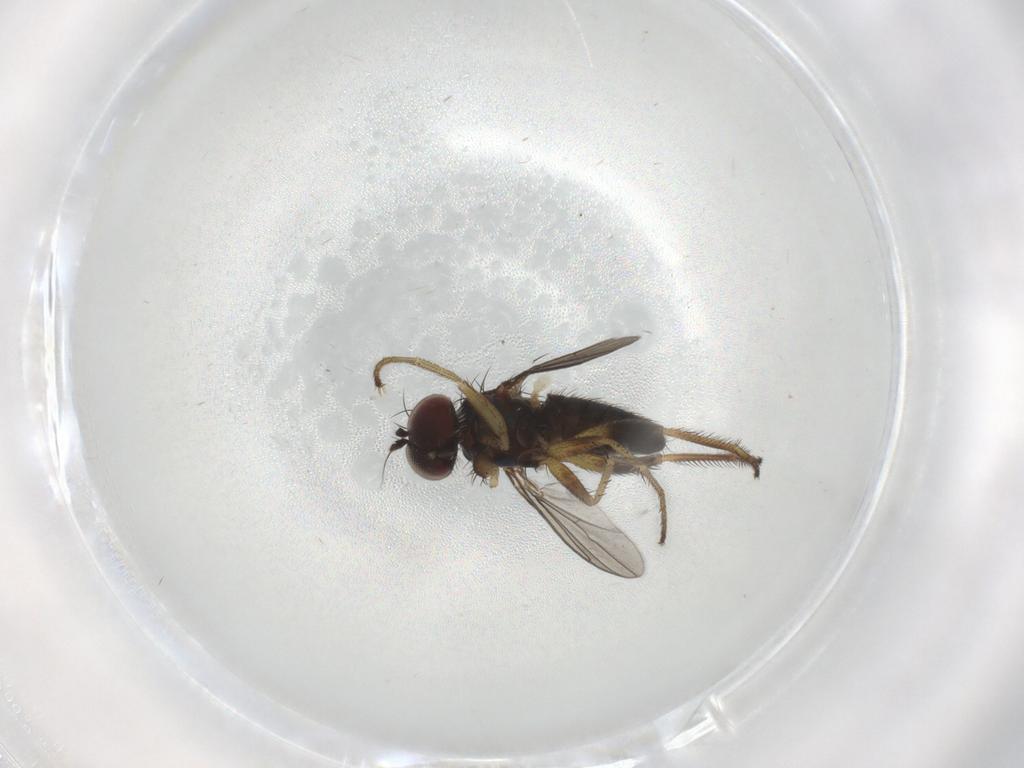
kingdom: Animalia
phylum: Arthropoda
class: Insecta
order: Diptera
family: Dolichopodidae
